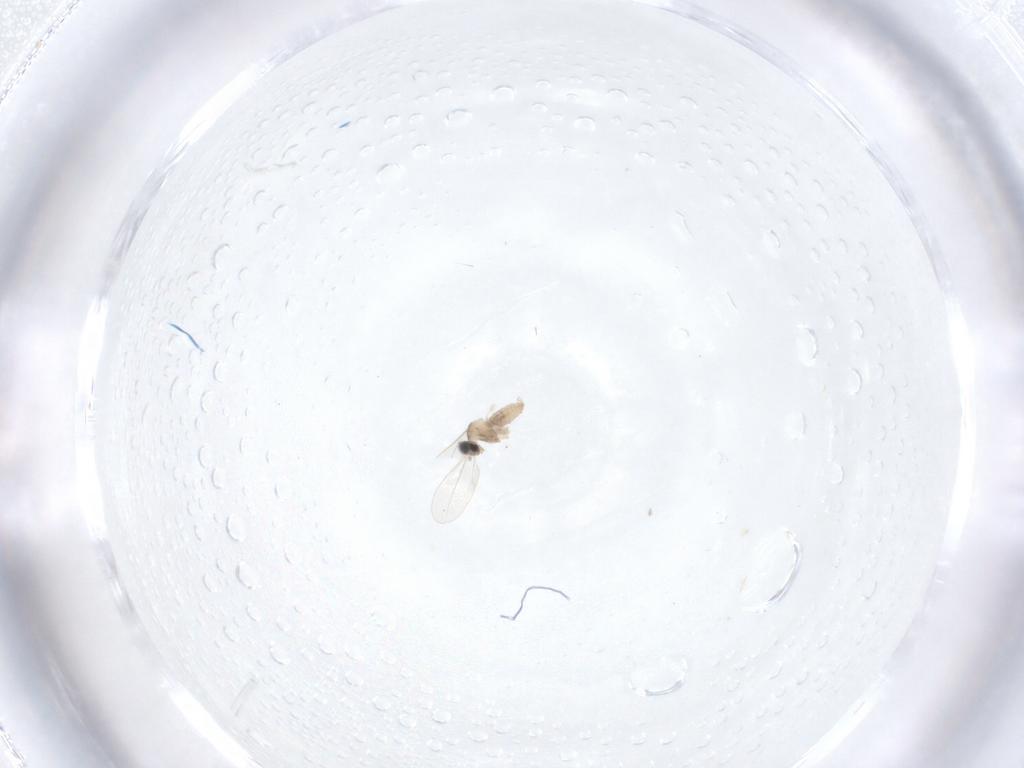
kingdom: Animalia
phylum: Arthropoda
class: Insecta
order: Diptera
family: Cecidomyiidae
